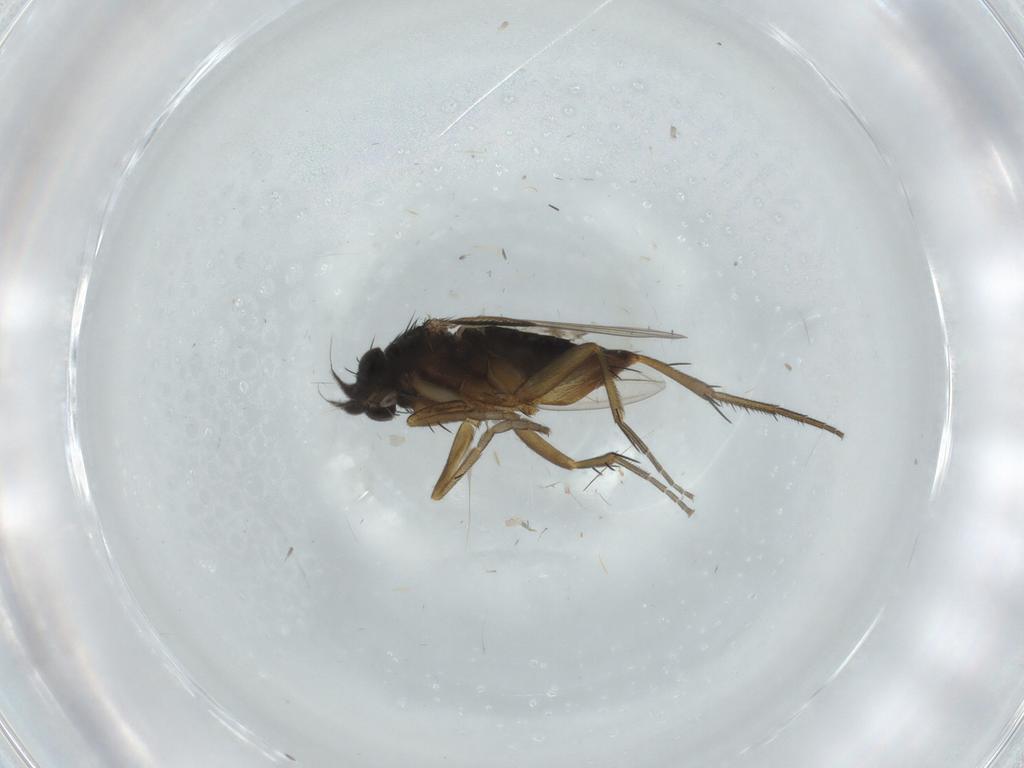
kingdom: Animalia
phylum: Arthropoda
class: Insecta
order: Diptera
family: Phoridae
